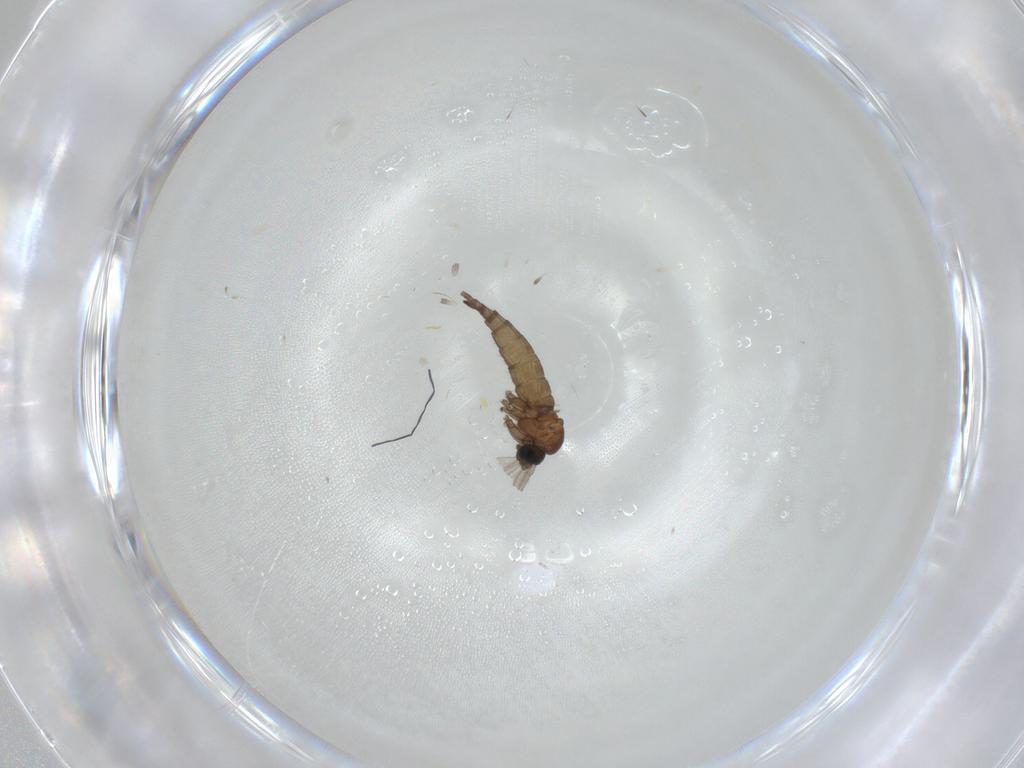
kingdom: Animalia
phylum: Arthropoda
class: Insecta
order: Diptera
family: Sciaridae
